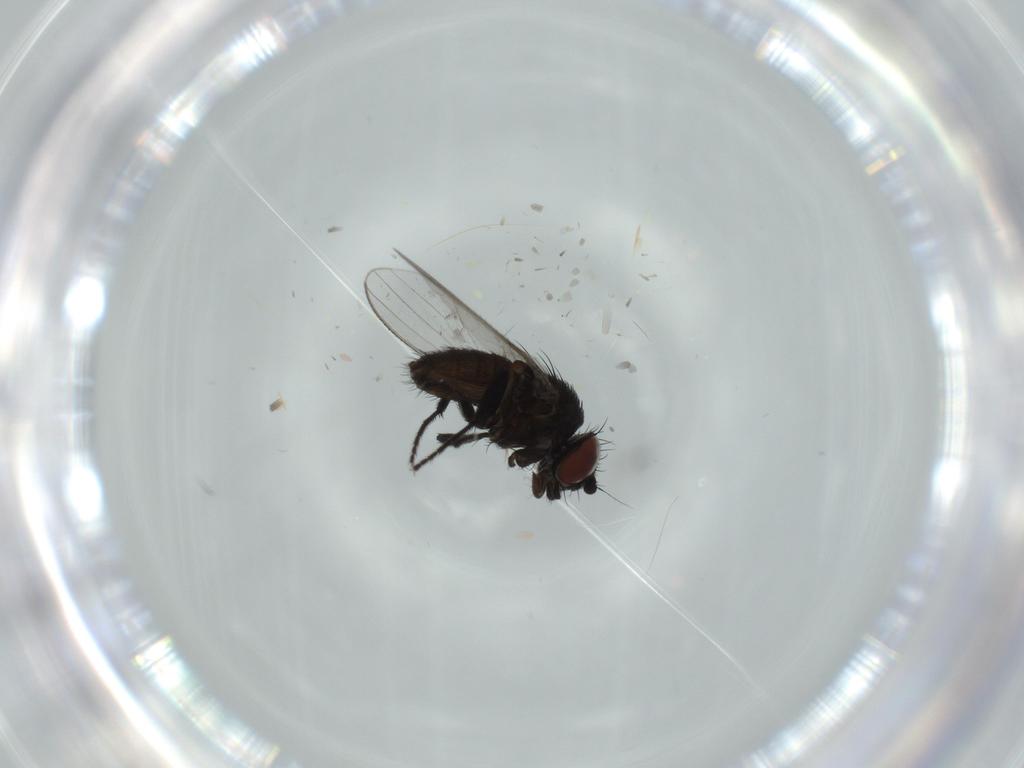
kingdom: Animalia
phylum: Arthropoda
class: Insecta
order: Diptera
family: Milichiidae
